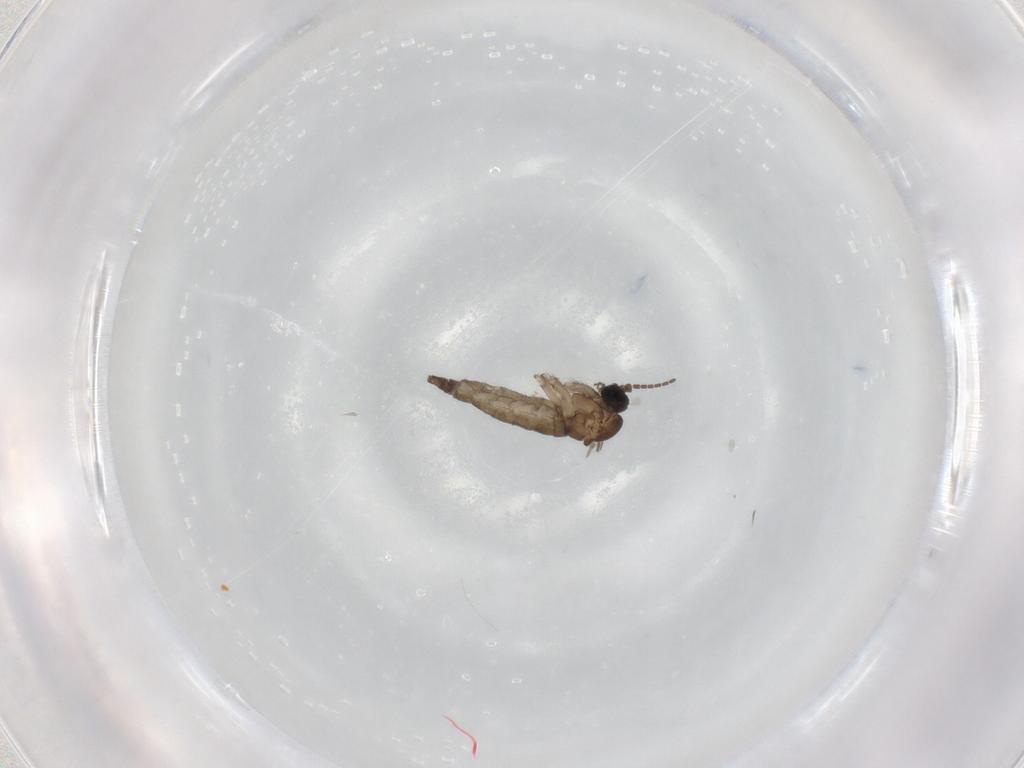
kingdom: Animalia
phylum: Arthropoda
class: Insecta
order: Diptera
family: Sciaridae
